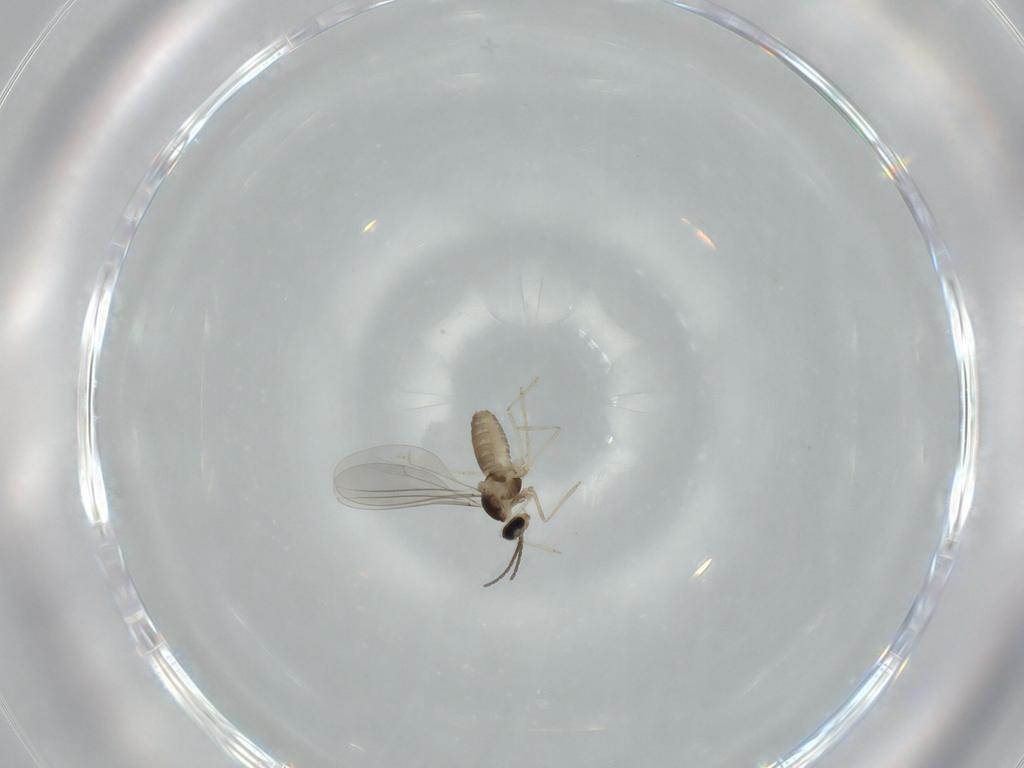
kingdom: Animalia
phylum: Arthropoda
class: Insecta
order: Diptera
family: Cecidomyiidae
